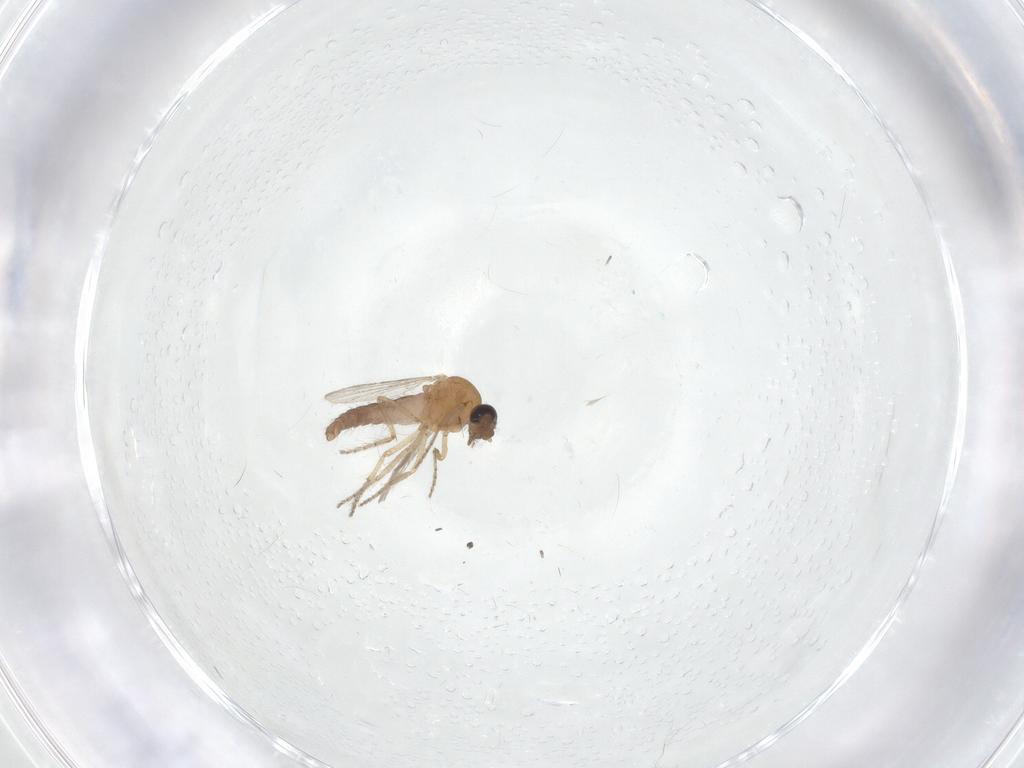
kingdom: Animalia
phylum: Arthropoda
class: Insecta
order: Diptera
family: Ceratopogonidae
